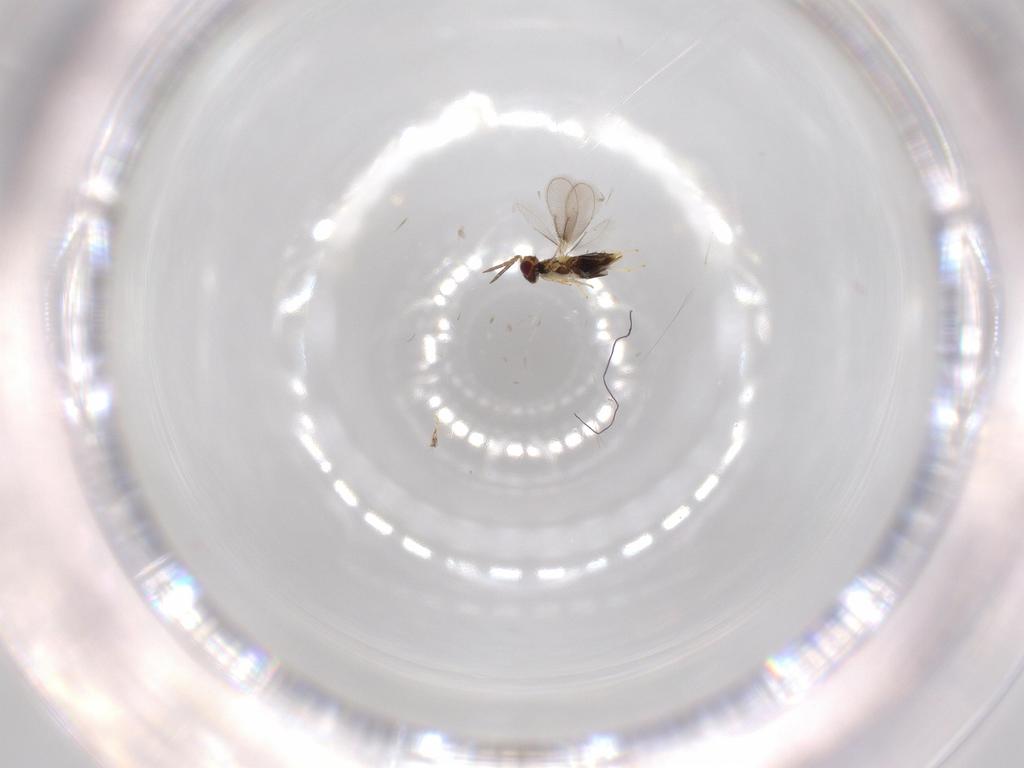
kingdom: Animalia
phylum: Arthropoda
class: Insecta
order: Hymenoptera
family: Aphelinidae
